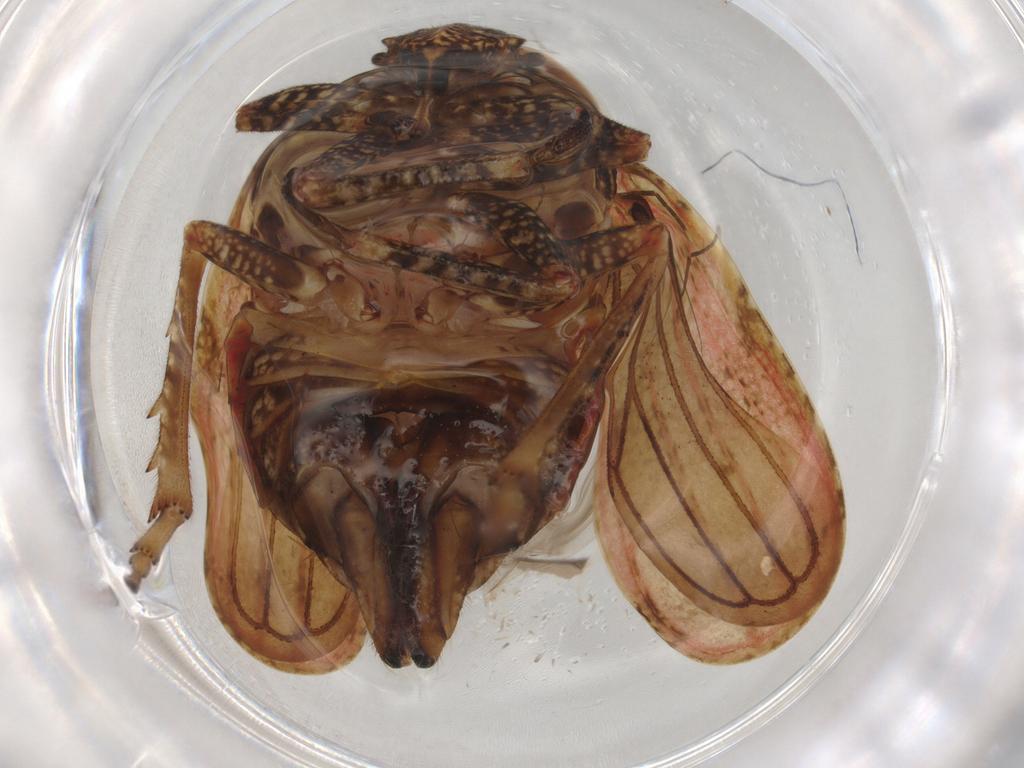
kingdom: Animalia
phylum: Arthropoda
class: Insecta
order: Hemiptera
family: Tropiduchidae
